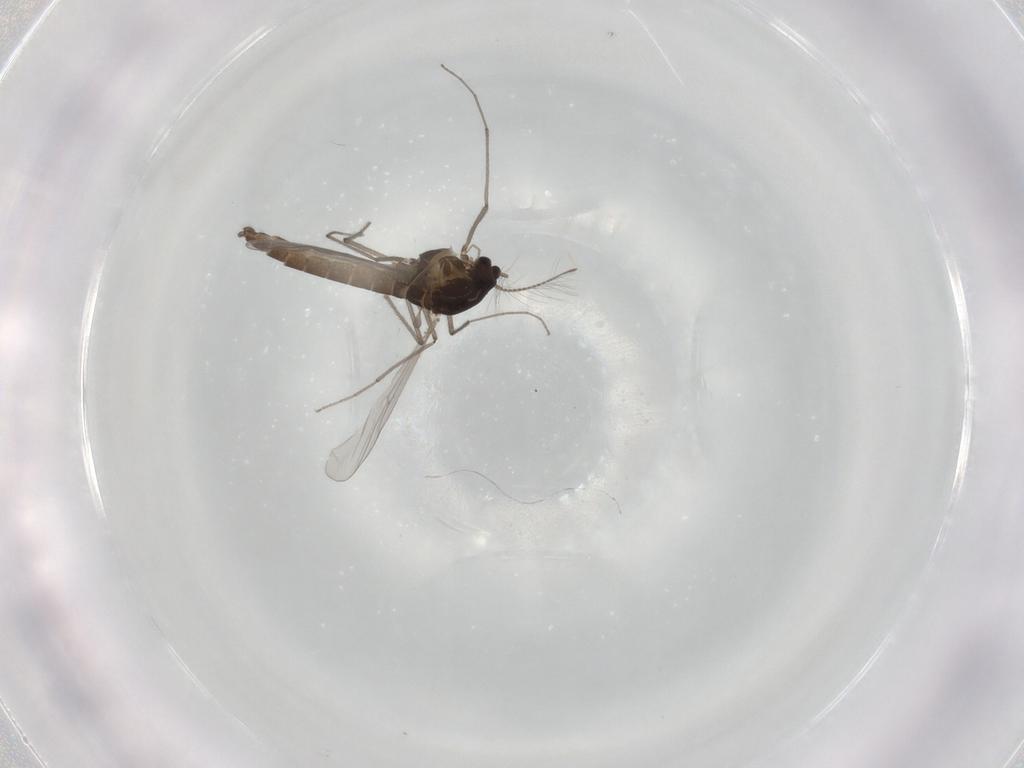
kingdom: Animalia
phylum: Arthropoda
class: Insecta
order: Diptera
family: Chironomidae
